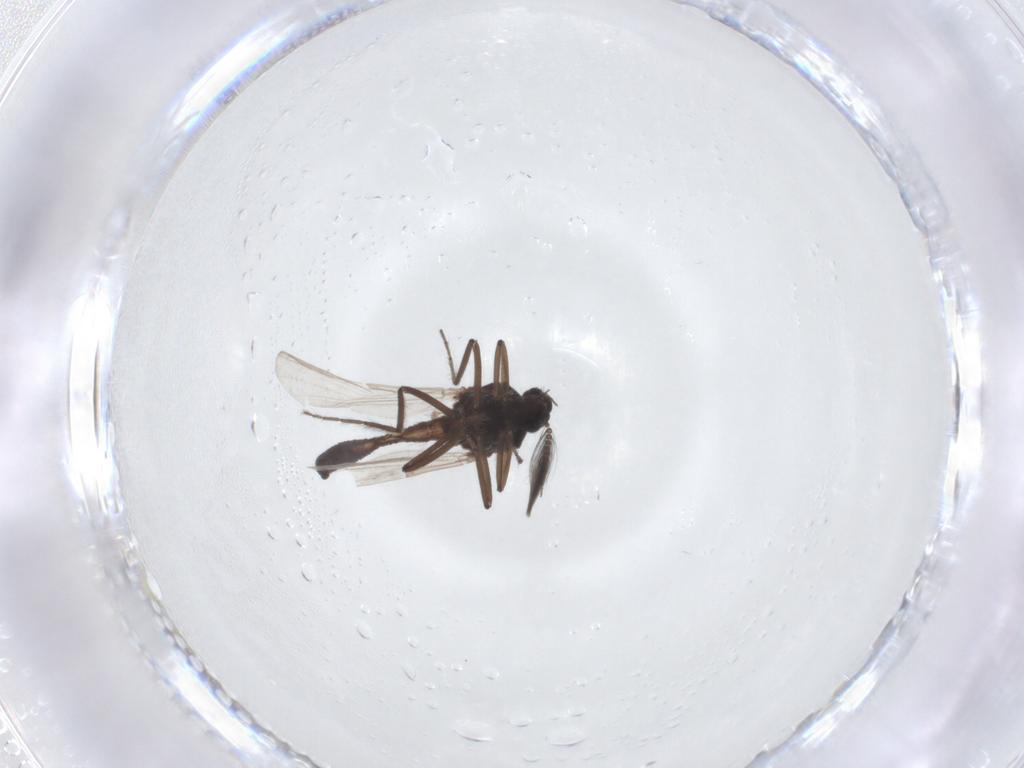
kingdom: Animalia
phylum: Arthropoda
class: Insecta
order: Diptera
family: Ceratopogonidae
